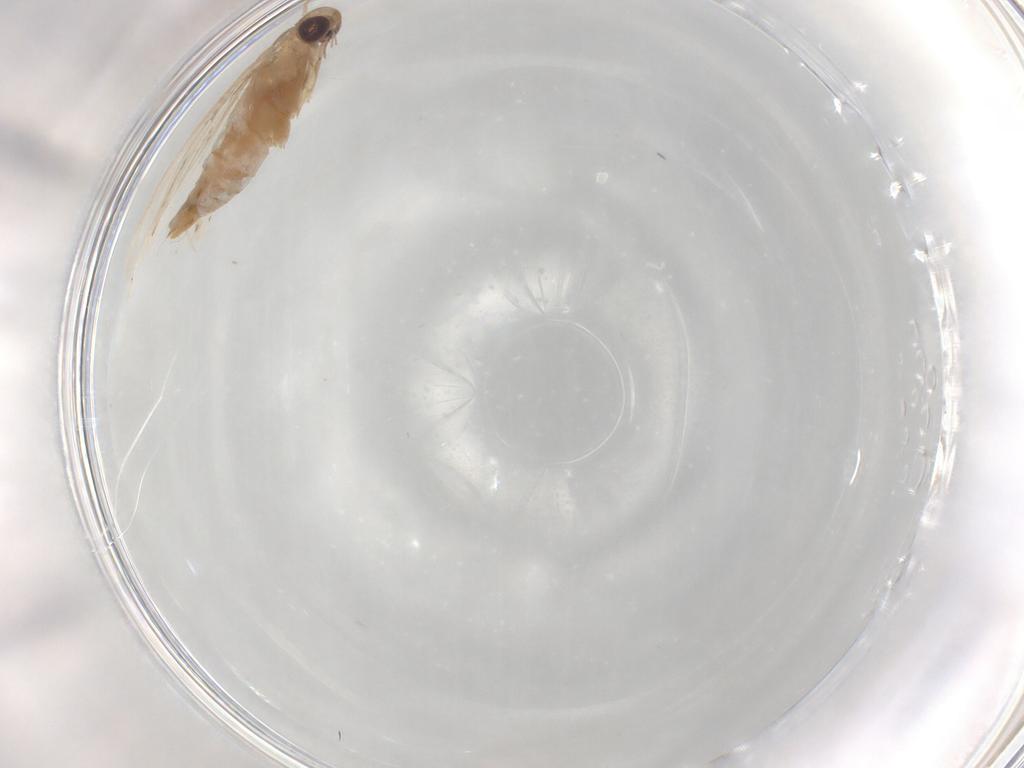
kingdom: Animalia
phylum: Arthropoda
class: Insecta
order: Lepidoptera
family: Glyphipterigidae
